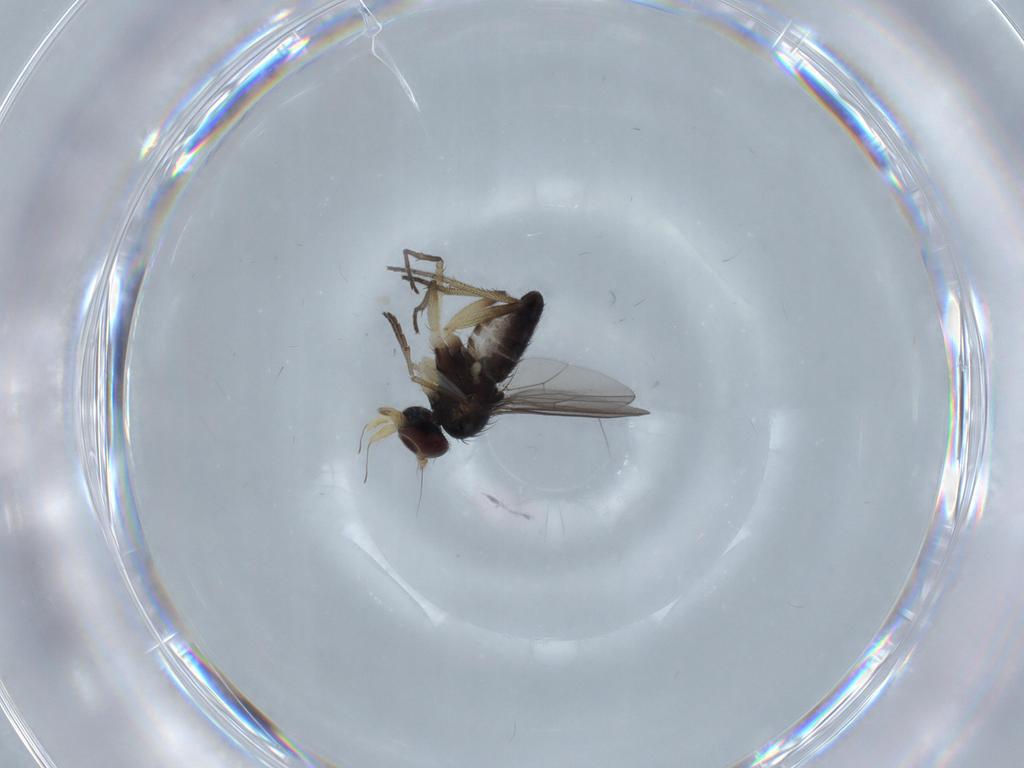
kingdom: Animalia
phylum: Arthropoda
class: Insecta
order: Diptera
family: Dolichopodidae
